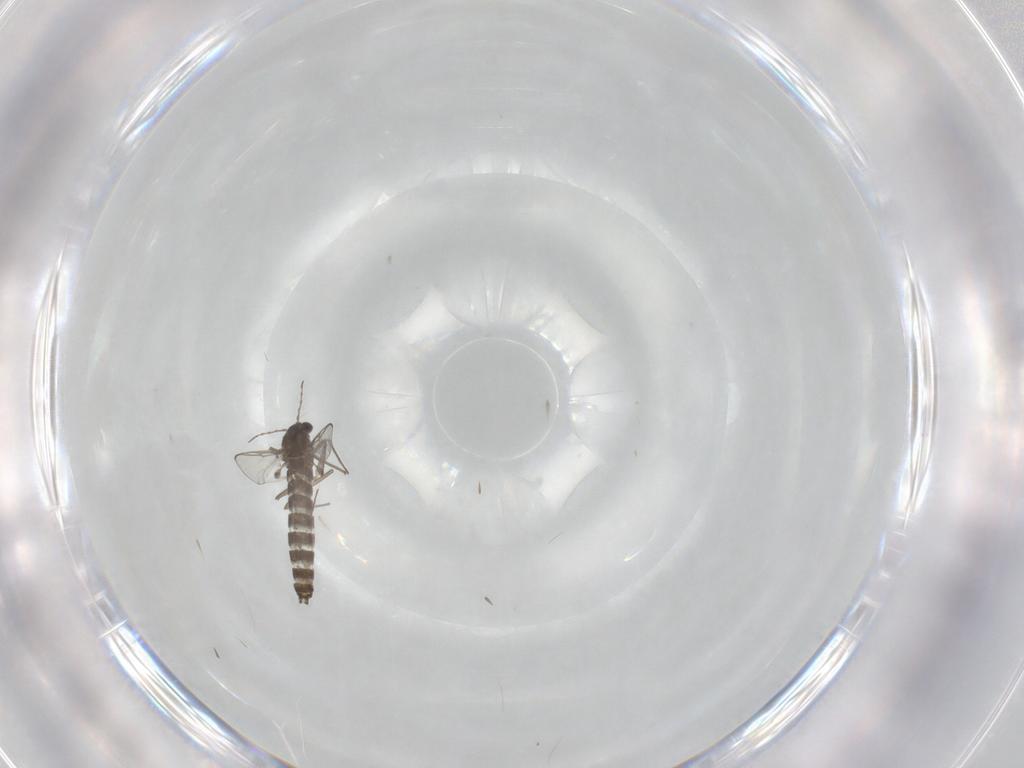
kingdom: Animalia
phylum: Arthropoda
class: Insecta
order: Diptera
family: Chironomidae
